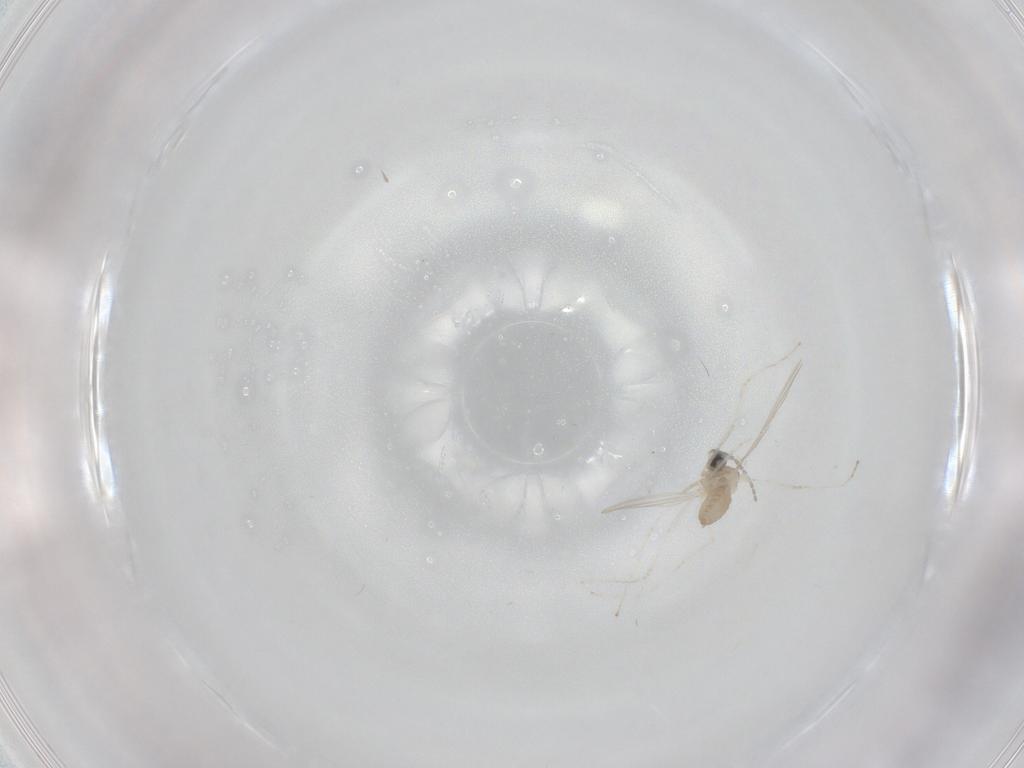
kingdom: Animalia
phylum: Arthropoda
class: Insecta
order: Diptera
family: Cecidomyiidae
